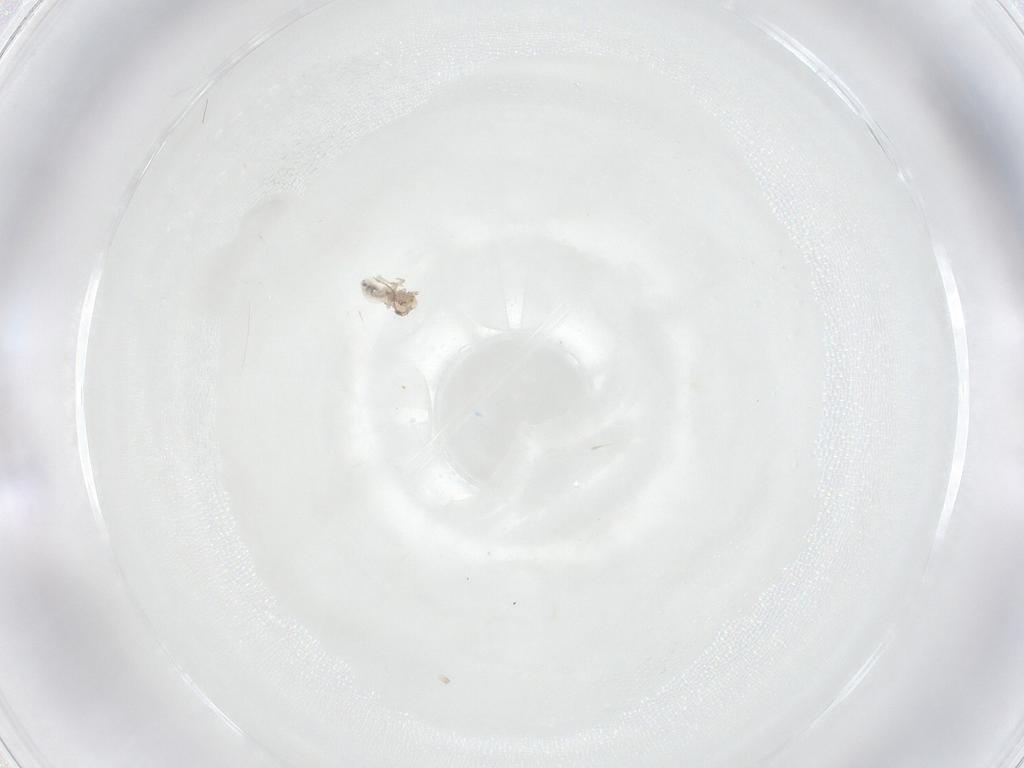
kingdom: Animalia
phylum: Arthropoda
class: Insecta
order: Psocodea
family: Lepidopsocidae
